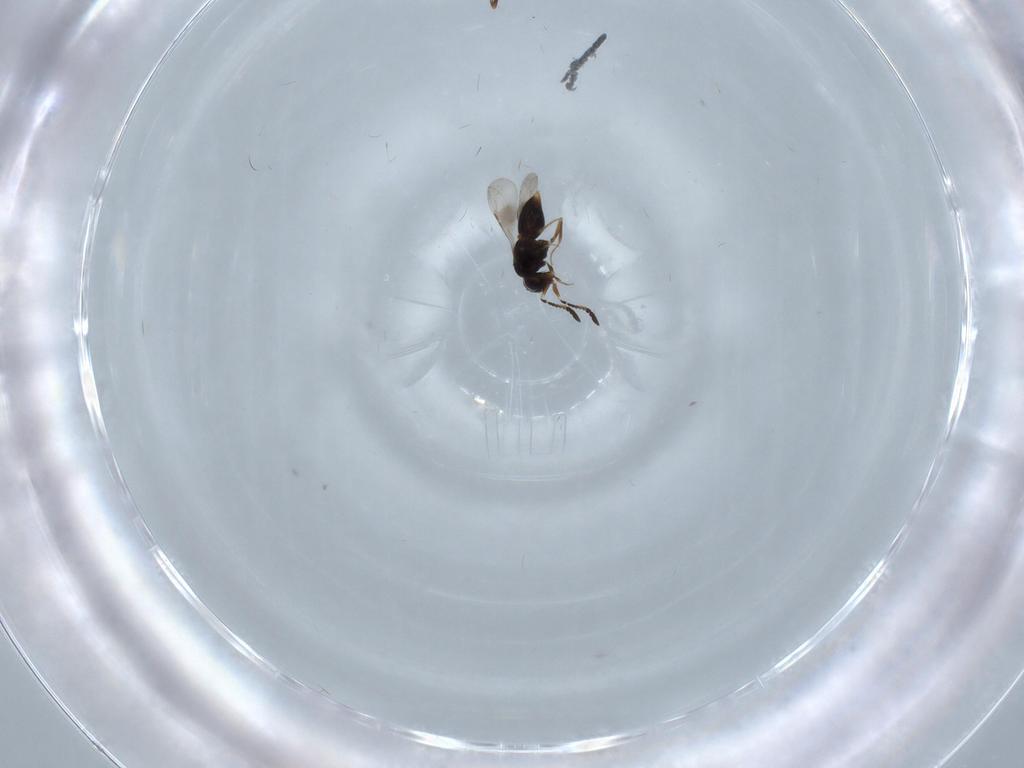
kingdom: Animalia
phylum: Arthropoda
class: Insecta
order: Hymenoptera
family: Ceraphronidae
